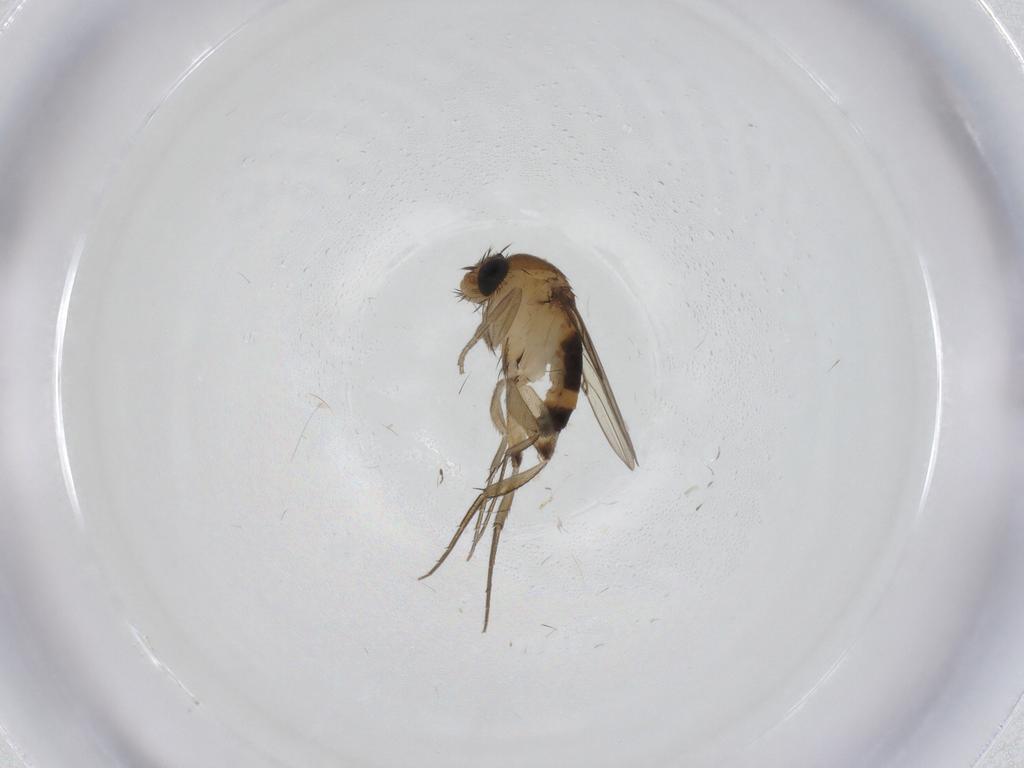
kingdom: Animalia
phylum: Arthropoda
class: Insecta
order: Diptera
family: Phoridae
